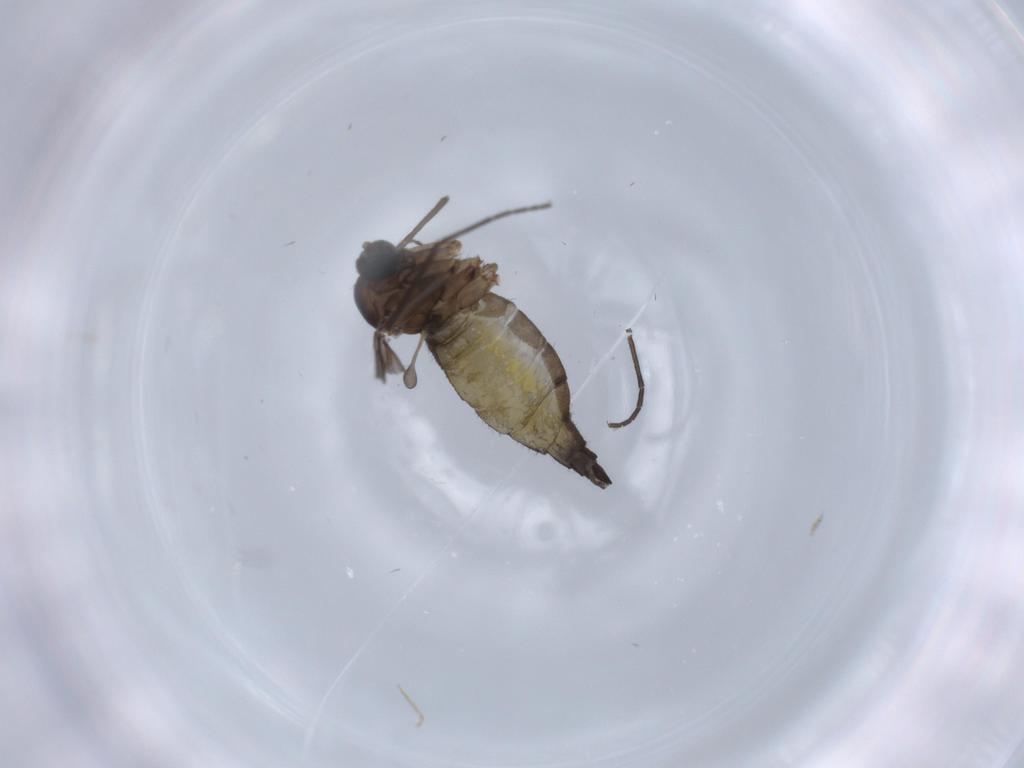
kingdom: Animalia
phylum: Arthropoda
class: Insecta
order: Diptera
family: Sciaridae
